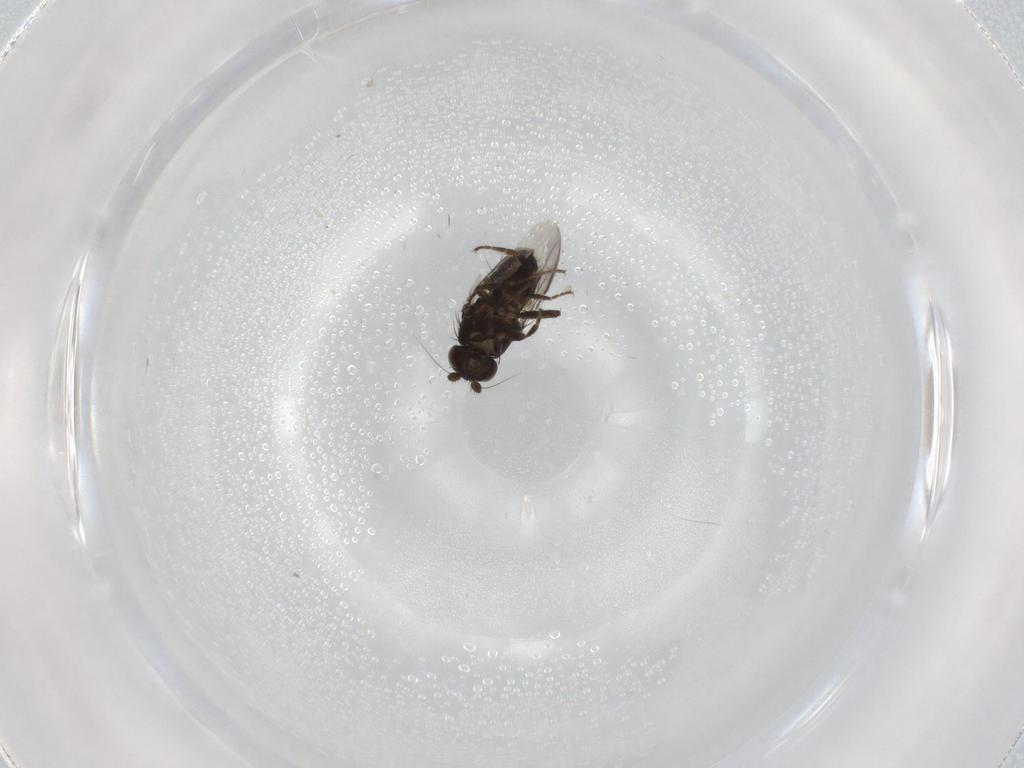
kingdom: Animalia
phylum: Arthropoda
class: Insecta
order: Diptera
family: Sphaeroceridae
